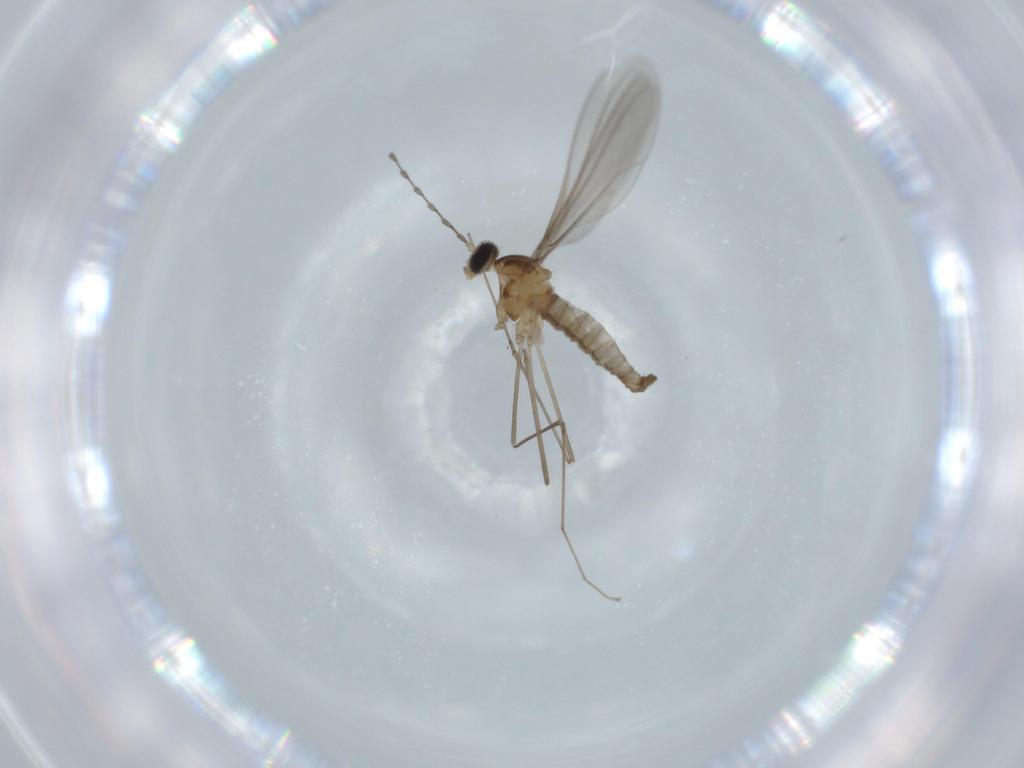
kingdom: Animalia
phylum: Arthropoda
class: Insecta
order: Diptera
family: Cecidomyiidae
